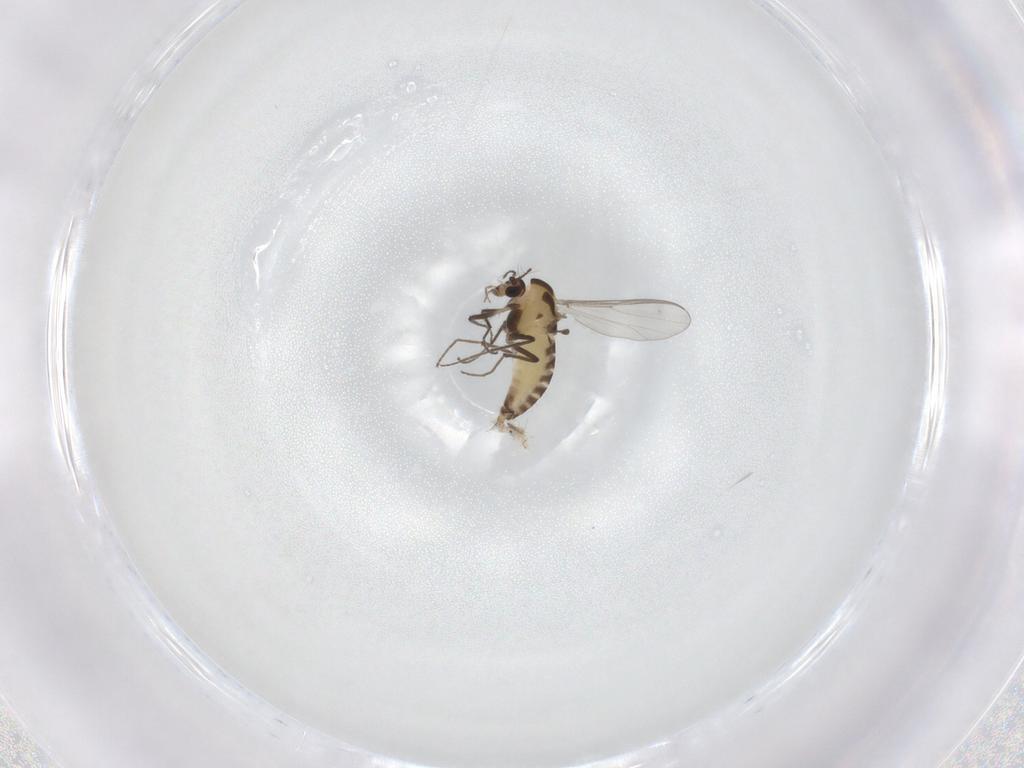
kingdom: Animalia
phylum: Arthropoda
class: Insecta
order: Diptera
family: Chironomidae
